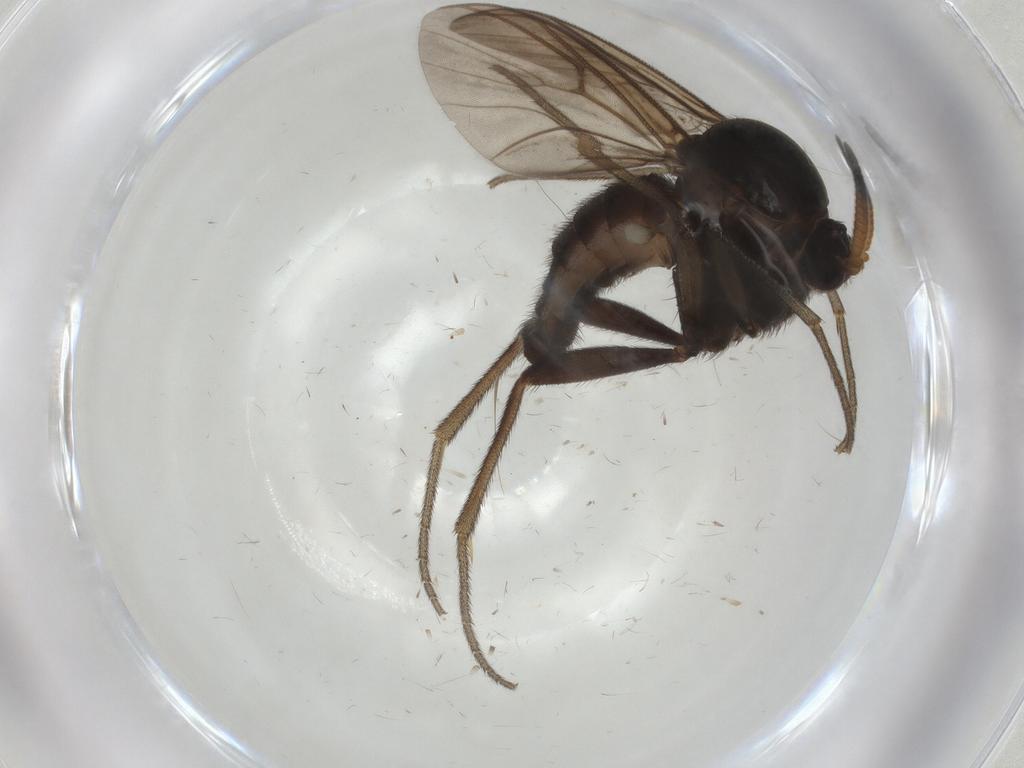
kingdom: Animalia
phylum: Arthropoda
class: Insecta
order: Diptera
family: Mycetophilidae
